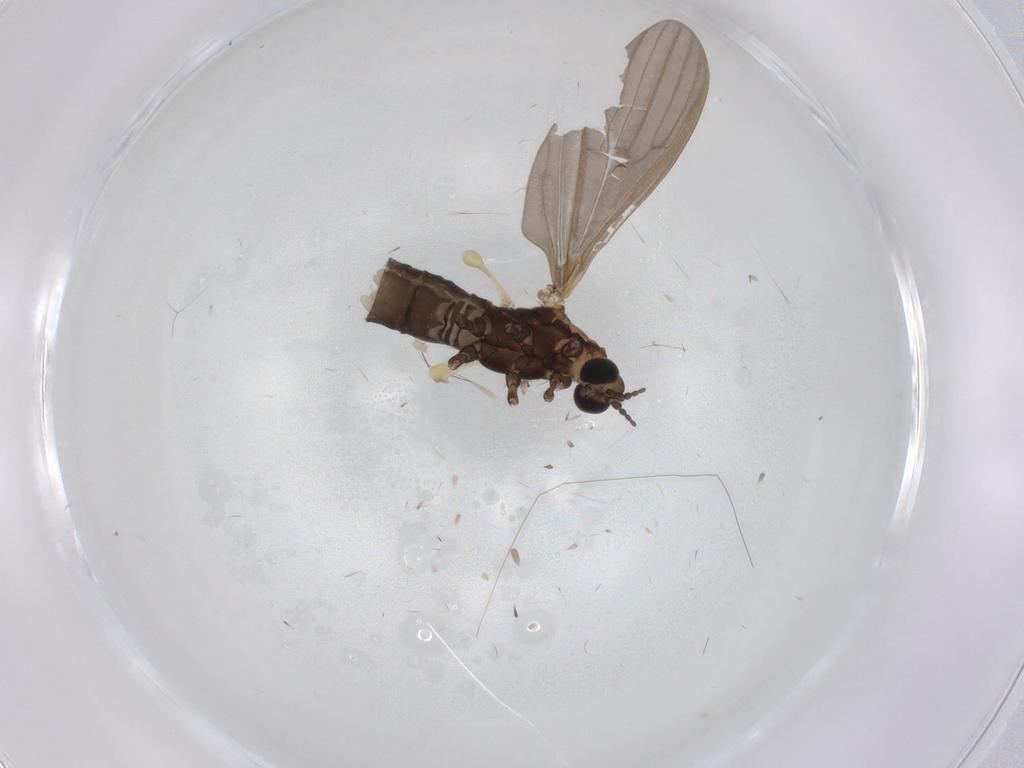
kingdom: Animalia
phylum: Arthropoda
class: Insecta
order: Diptera
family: Limoniidae
